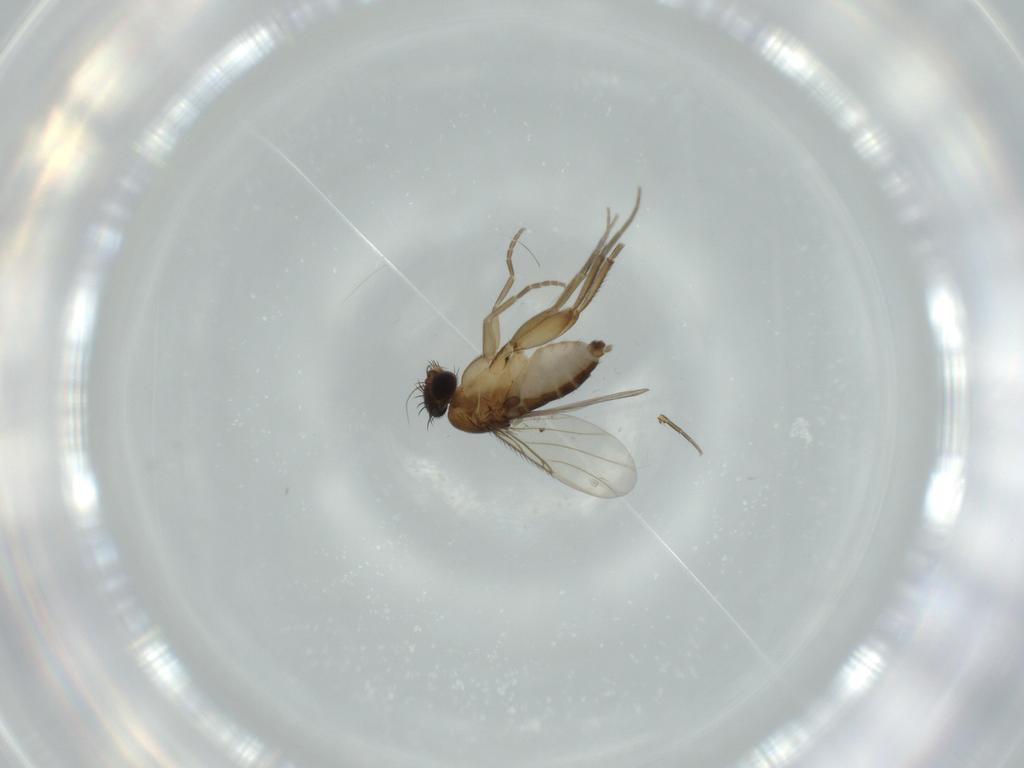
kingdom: Animalia
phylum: Arthropoda
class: Insecta
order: Diptera
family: Phoridae
